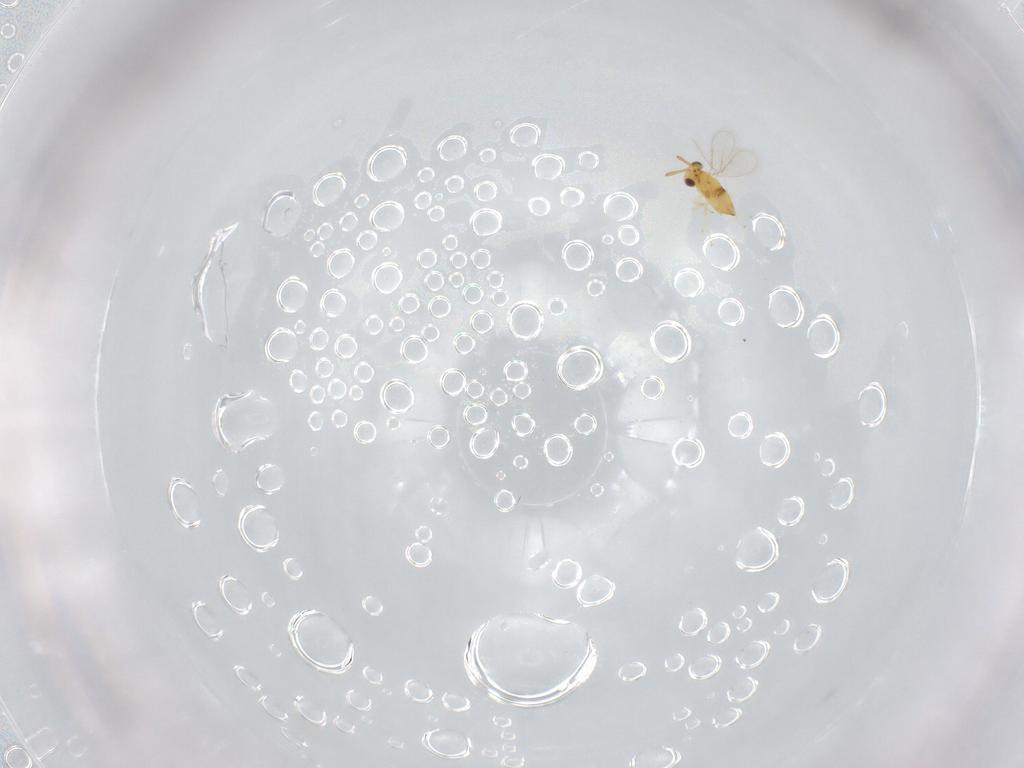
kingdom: Animalia
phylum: Arthropoda
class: Insecta
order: Hymenoptera
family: Aphelinidae
